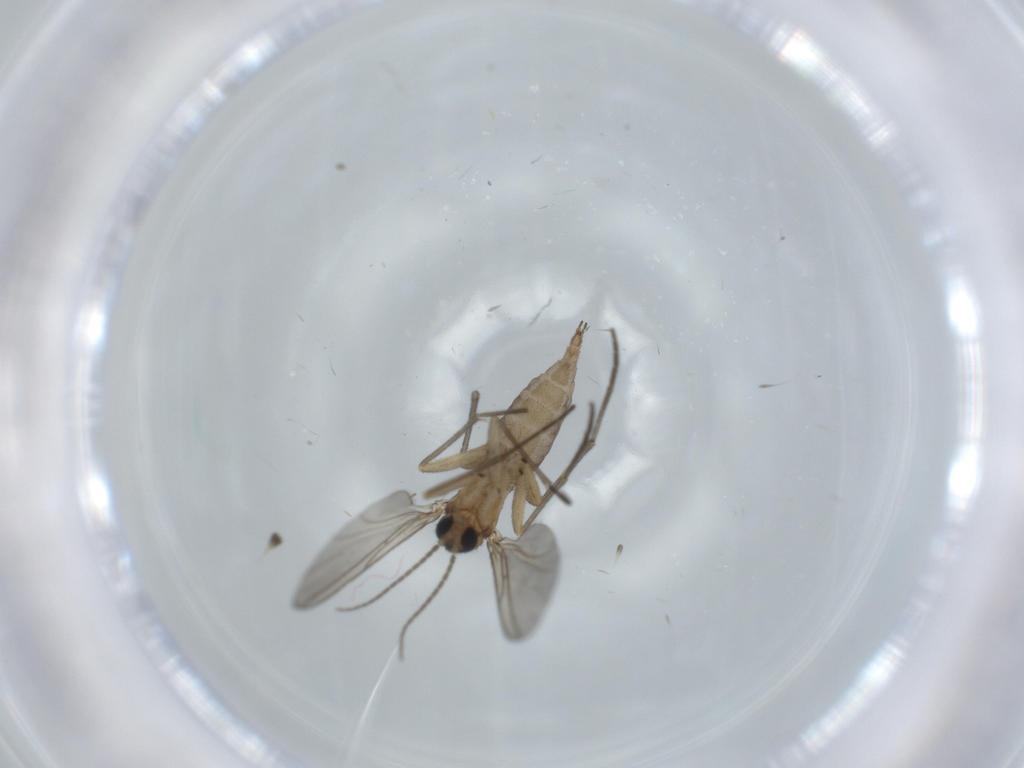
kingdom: Animalia
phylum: Arthropoda
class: Insecta
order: Diptera
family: Sciaridae
